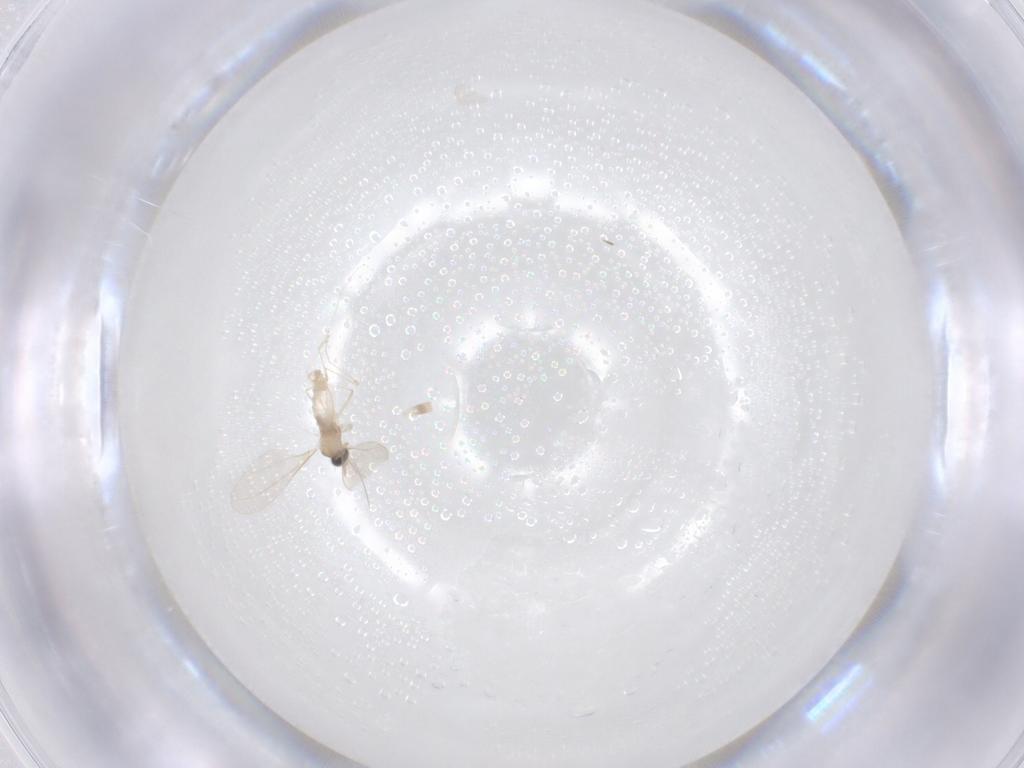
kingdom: Animalia
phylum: Arthropoda
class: Insecta
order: Diptera
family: Cecidomyiidae
